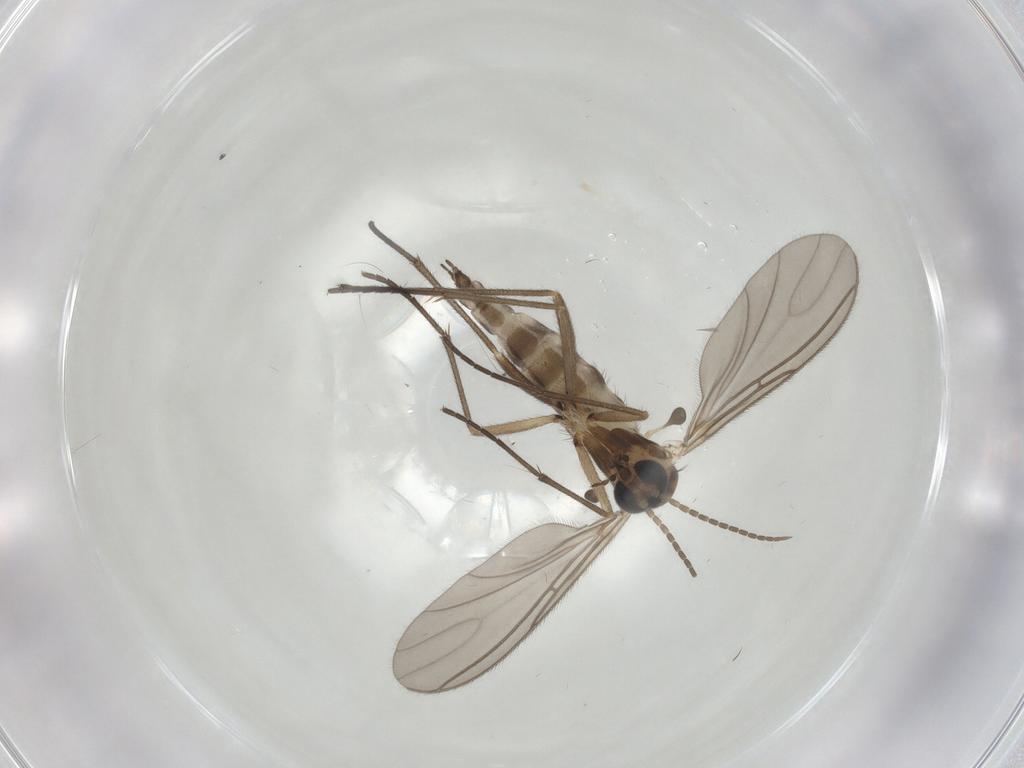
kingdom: Animalia
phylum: Arthropoda
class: Insecta
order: Diptera
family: Sciaridae
